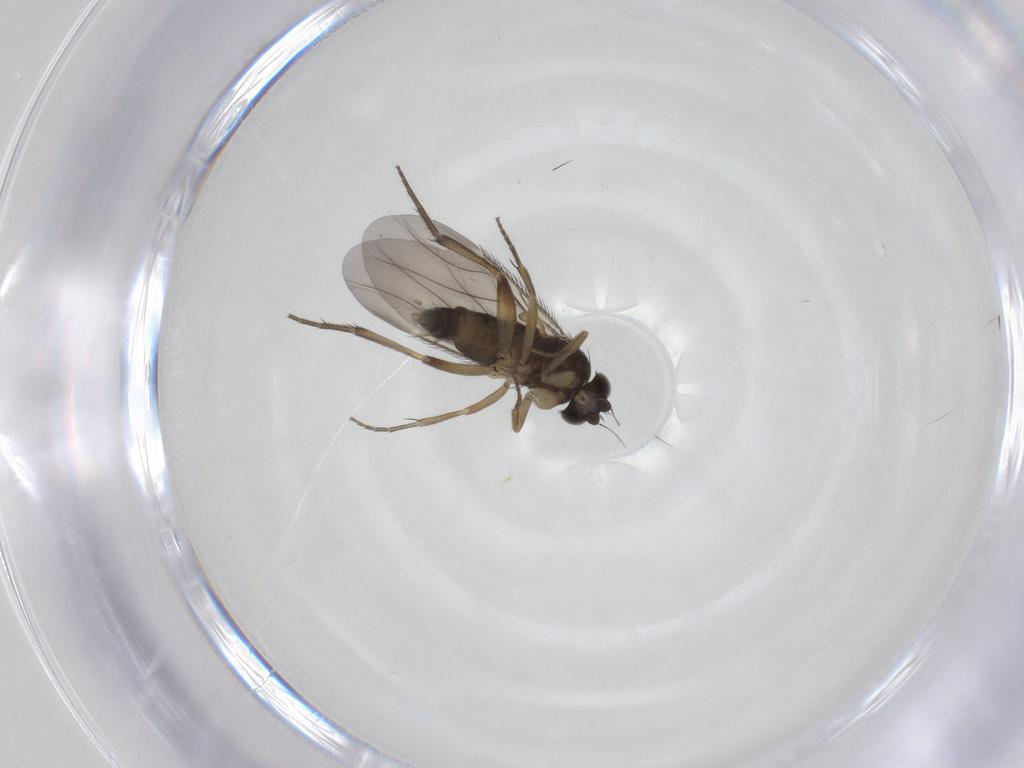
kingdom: Animalia
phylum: Arthropoda
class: Insecta
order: Diptera
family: Phoridae
